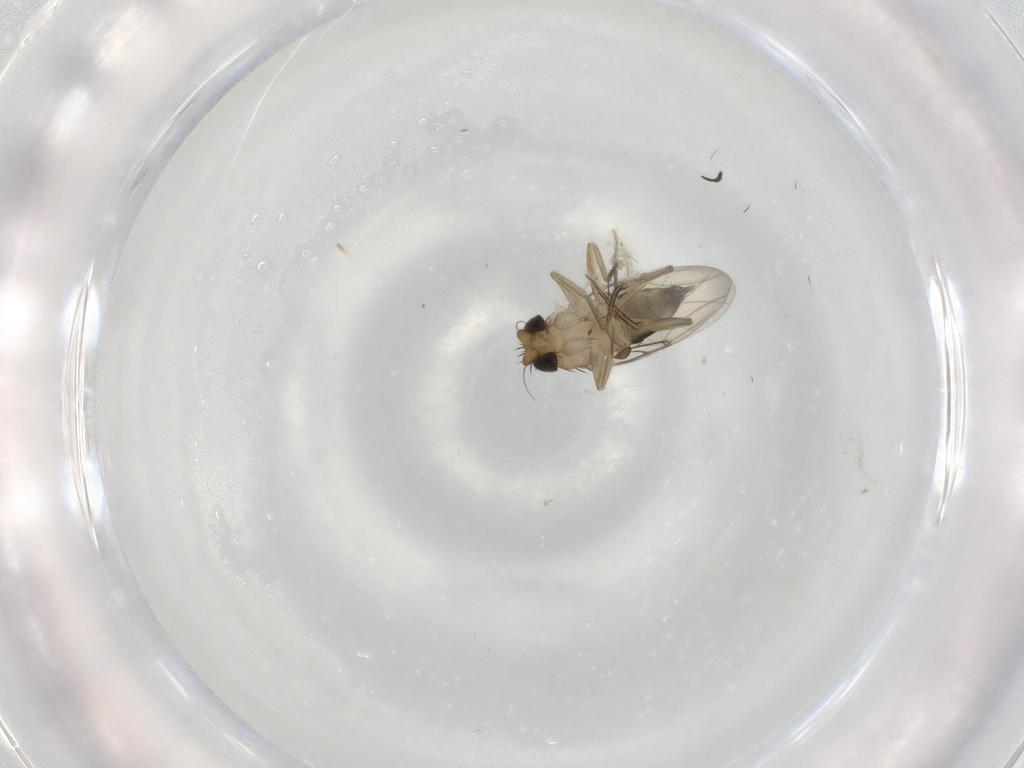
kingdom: Animalia
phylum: Arthropoda
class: Insecta
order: Diptera
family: Phoridae
